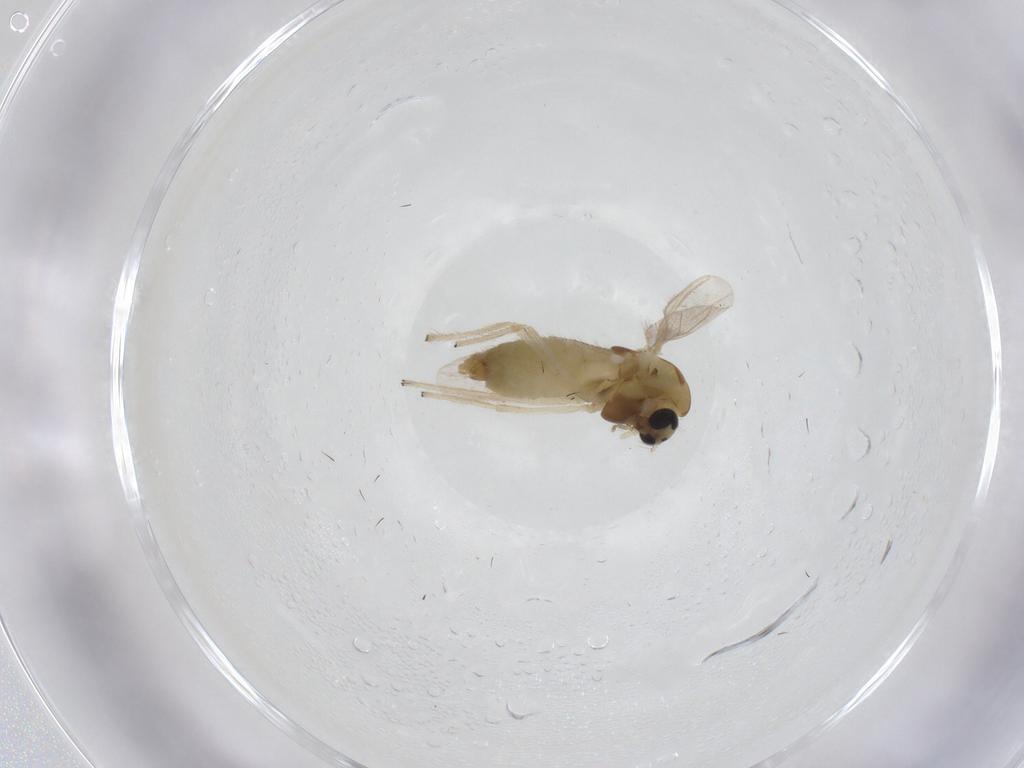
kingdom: Animalia
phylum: Arthropoda
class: Insecta
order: Diptera
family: Chironomidae
